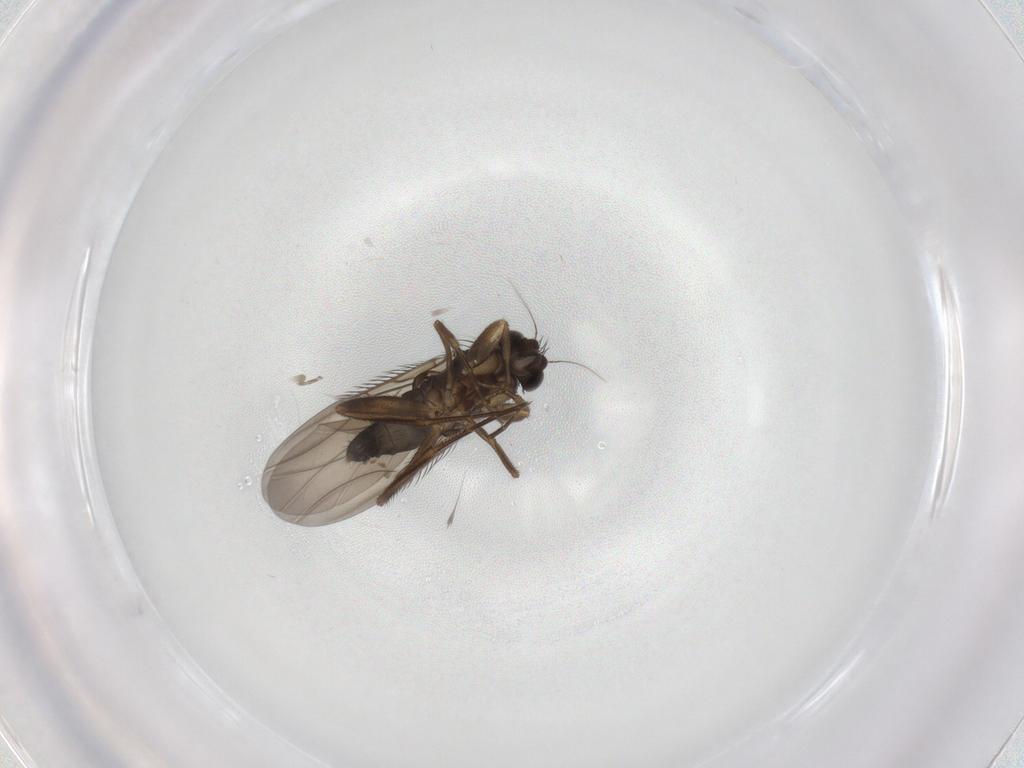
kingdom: Animalia
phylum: Arthropoda
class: Insecta
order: Diptera
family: Phoridae
